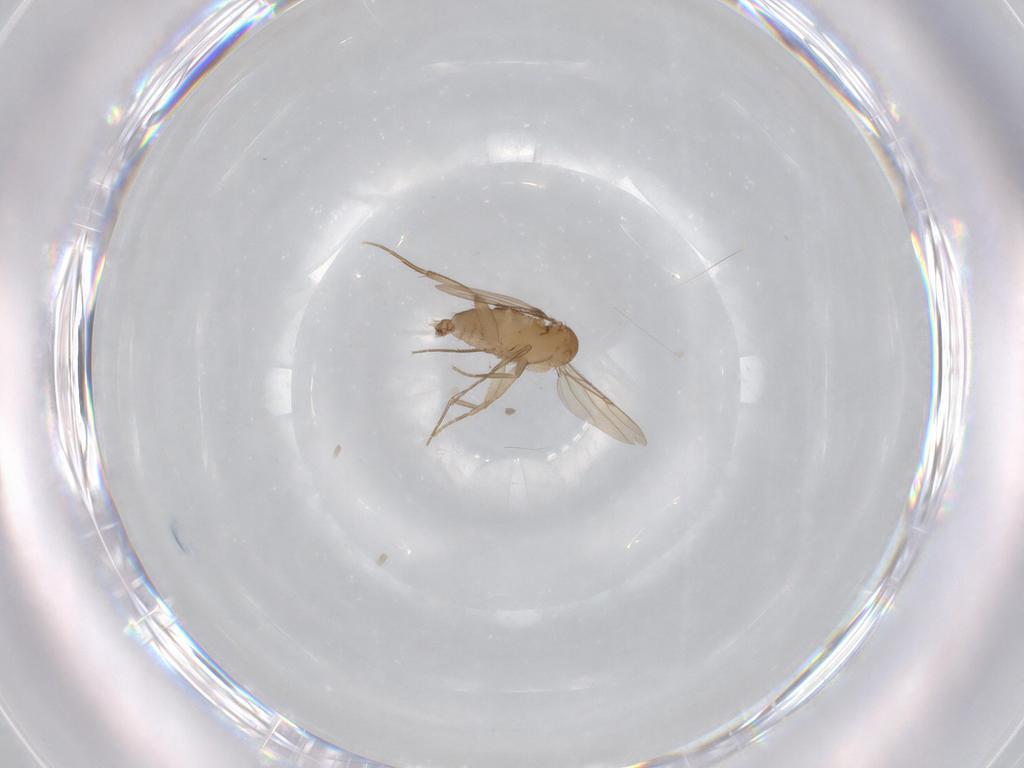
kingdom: Animalia
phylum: Arthropoda
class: Insecta
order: Diptera
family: Phoridae
